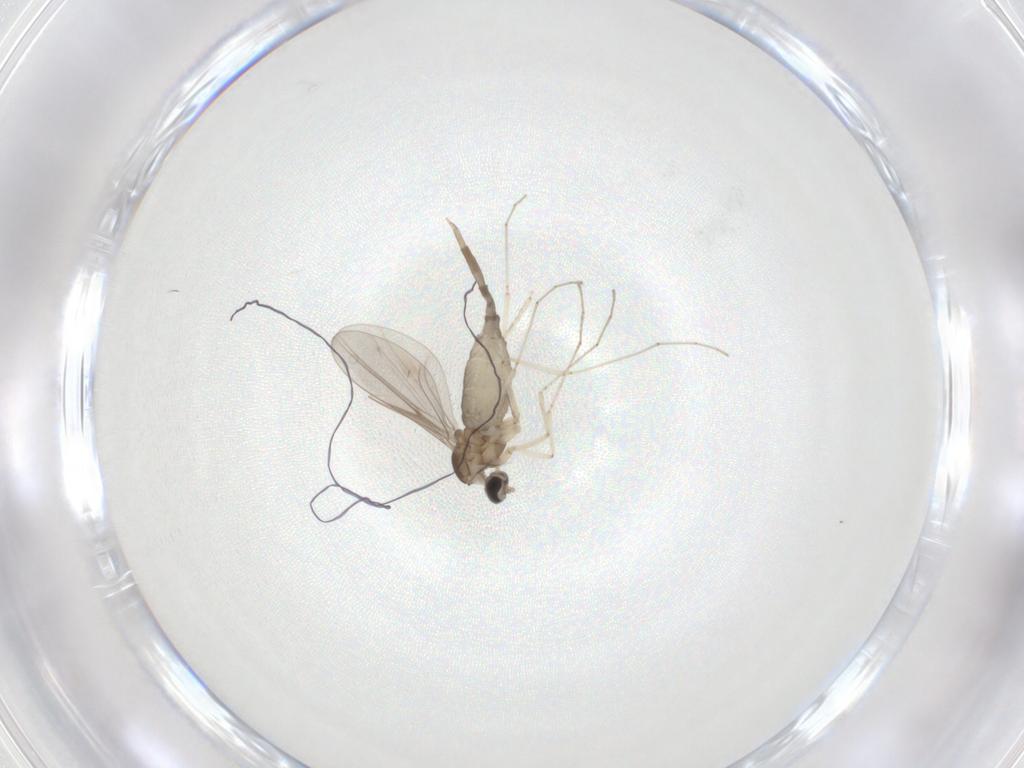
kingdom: Animalia
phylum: Arthropoda
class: Insecta
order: Diptera
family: Cecidomyiidae
